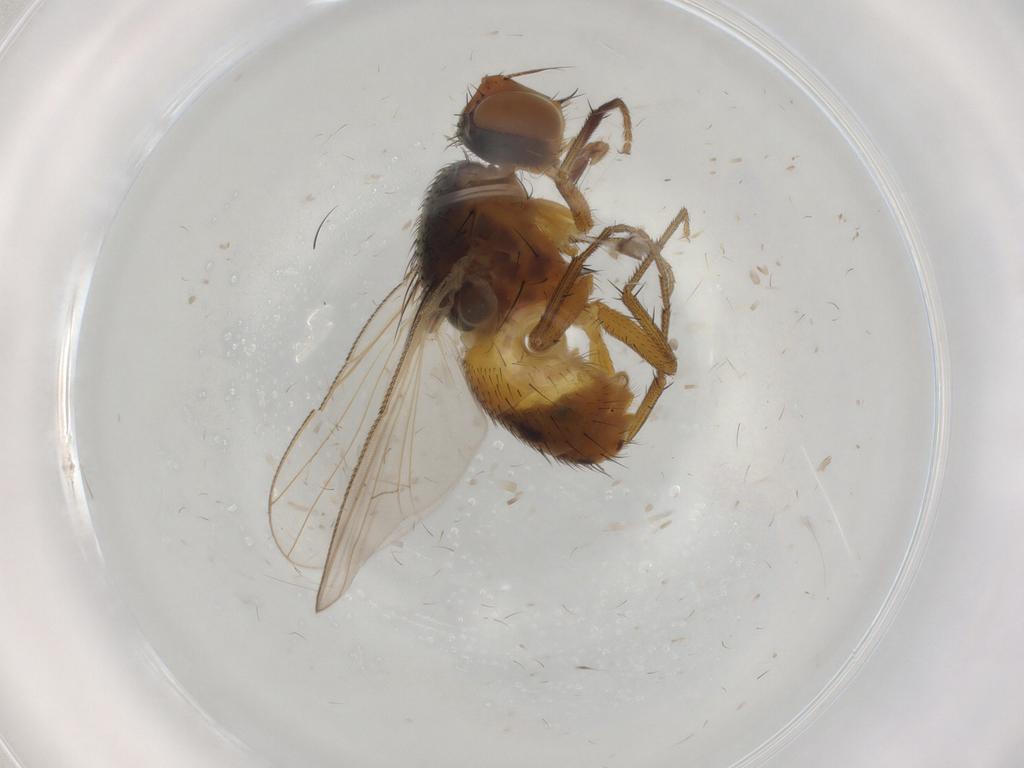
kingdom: Animalia
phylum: Arthropoda
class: Insecta
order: Diptera
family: Muscidae
